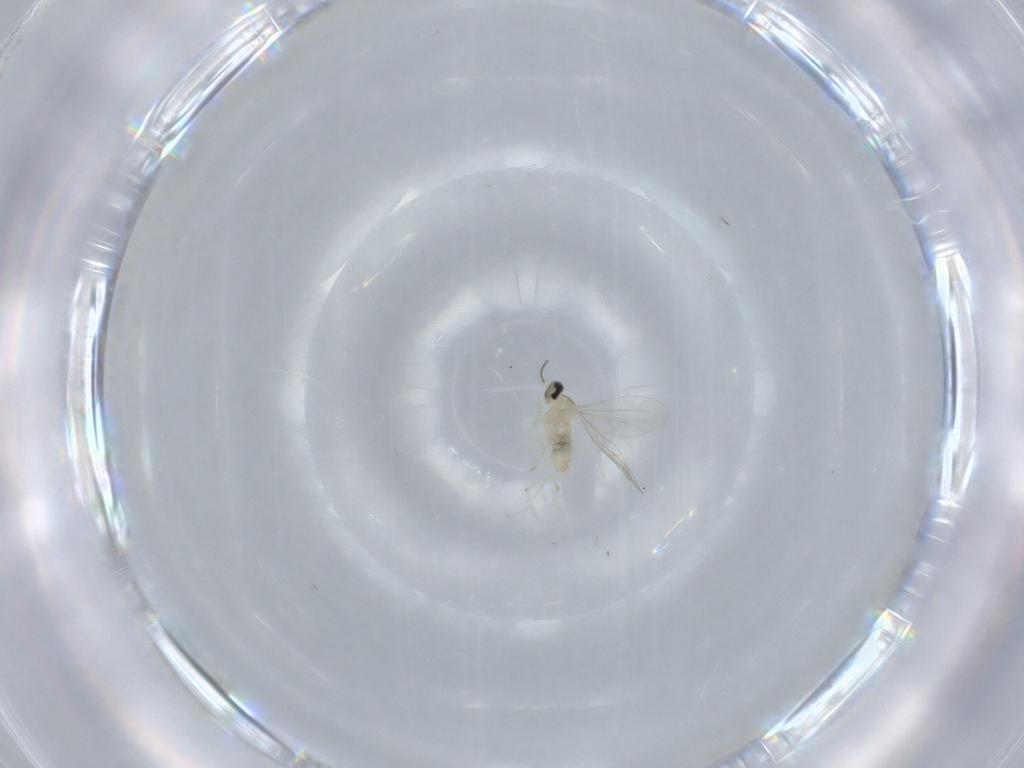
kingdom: Animalia
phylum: Arthropoda
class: Insecta
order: Diptera
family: Cecidomyiidae
